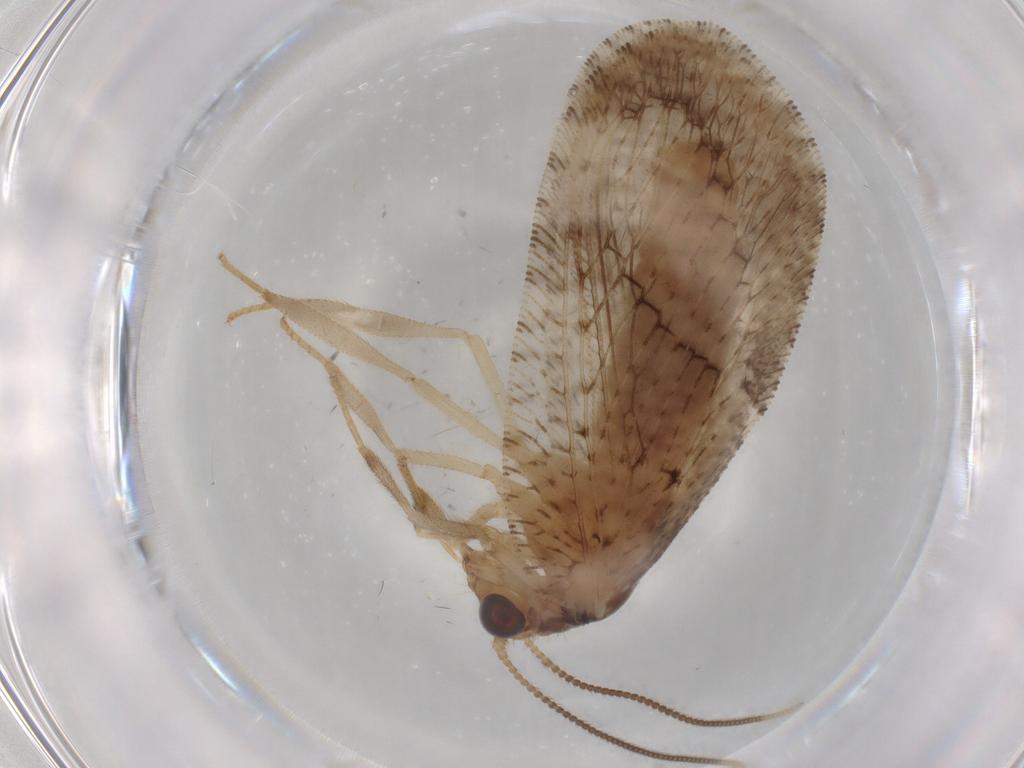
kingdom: Animalia
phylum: Arthropoda
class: Insecta
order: Neuroptera
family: Hemerobiidae
